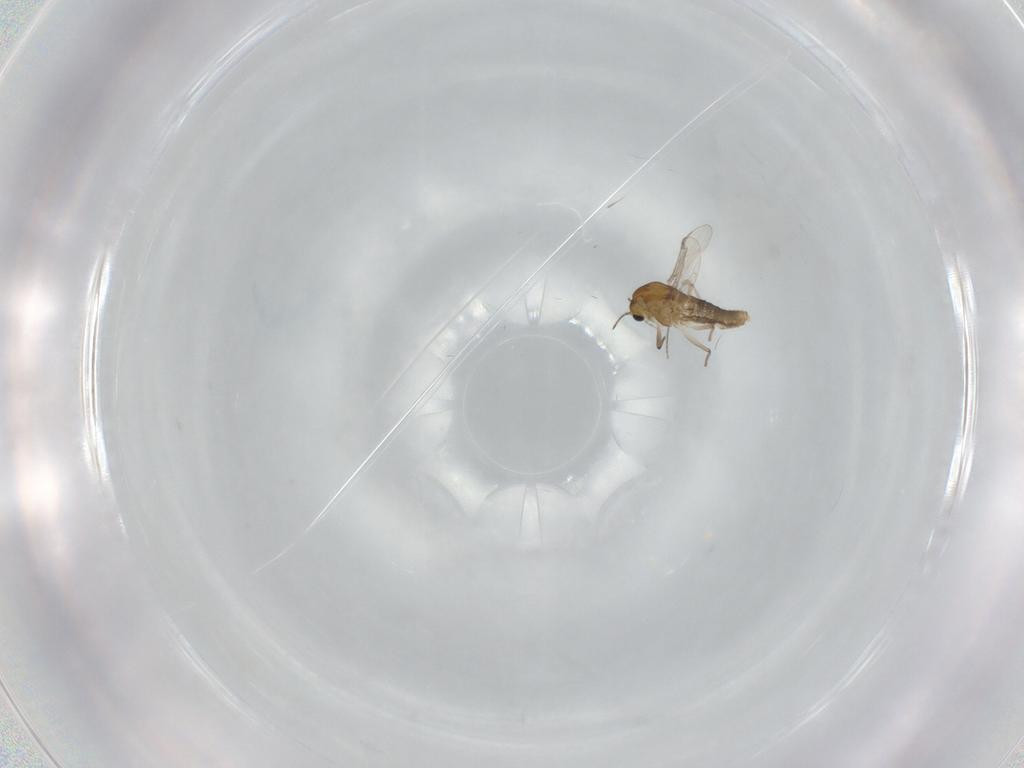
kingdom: Animalia
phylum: Arthropoda
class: Insecta
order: Diptera
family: Chironomidae
